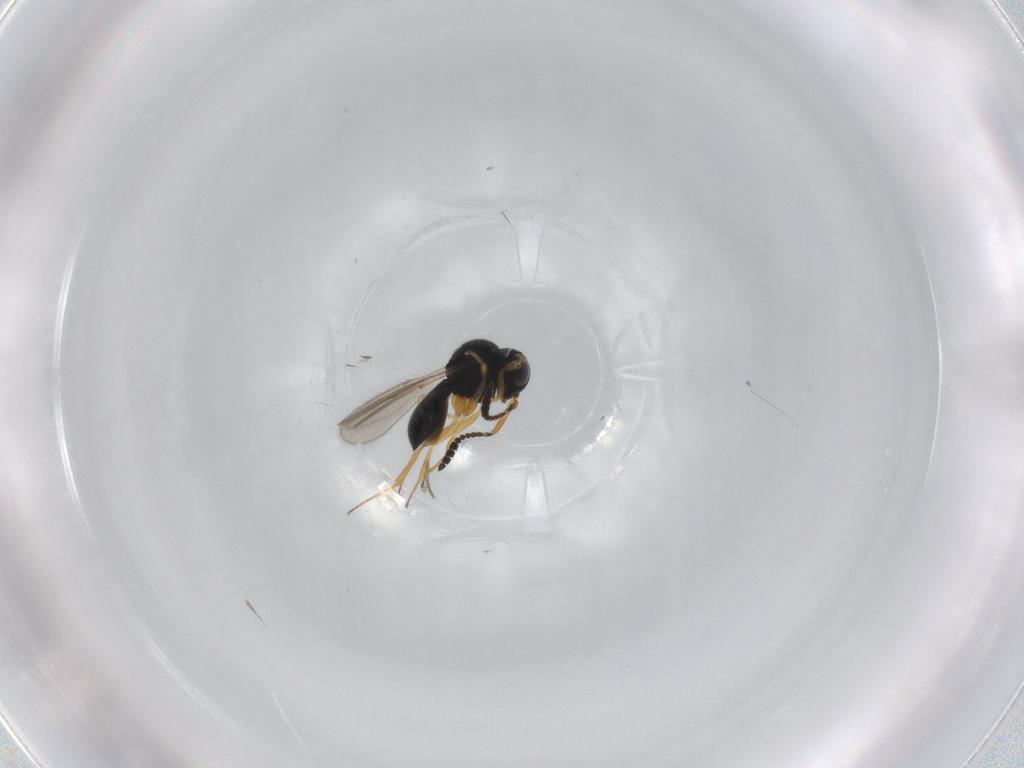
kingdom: Animalia
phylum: Arthropoda
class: Insecta
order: Hymenoptera
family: Scelionidae
